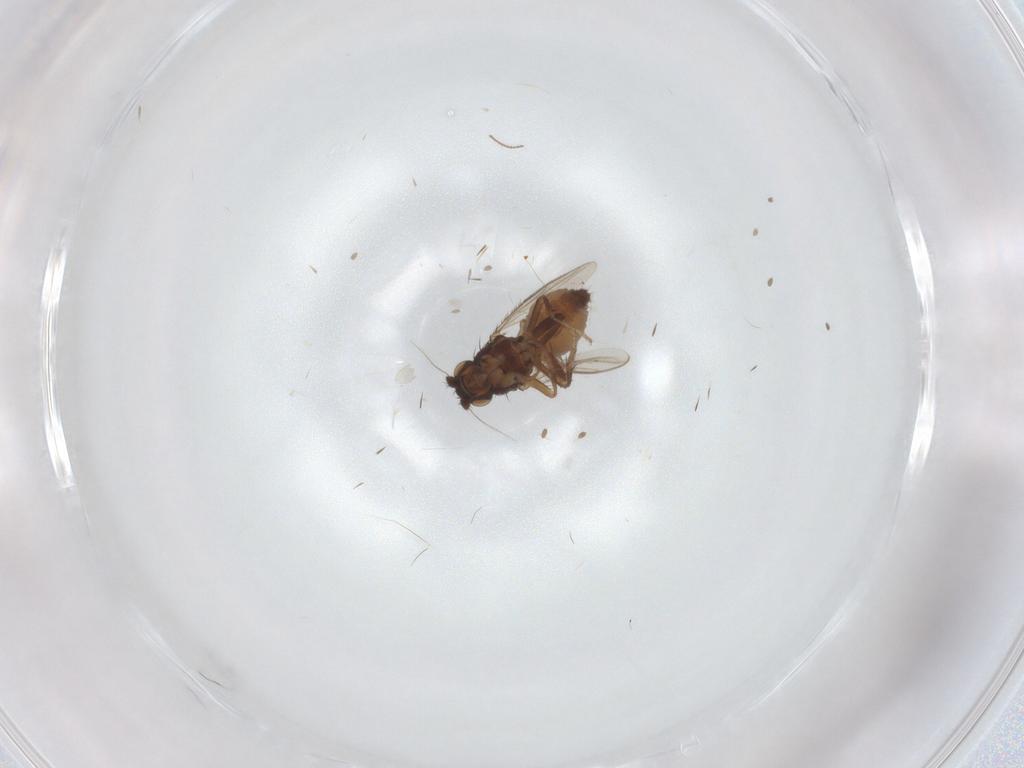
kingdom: Animalia
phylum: Arthropoda
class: Insecta
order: Diptera
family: Sphaeroceridae
